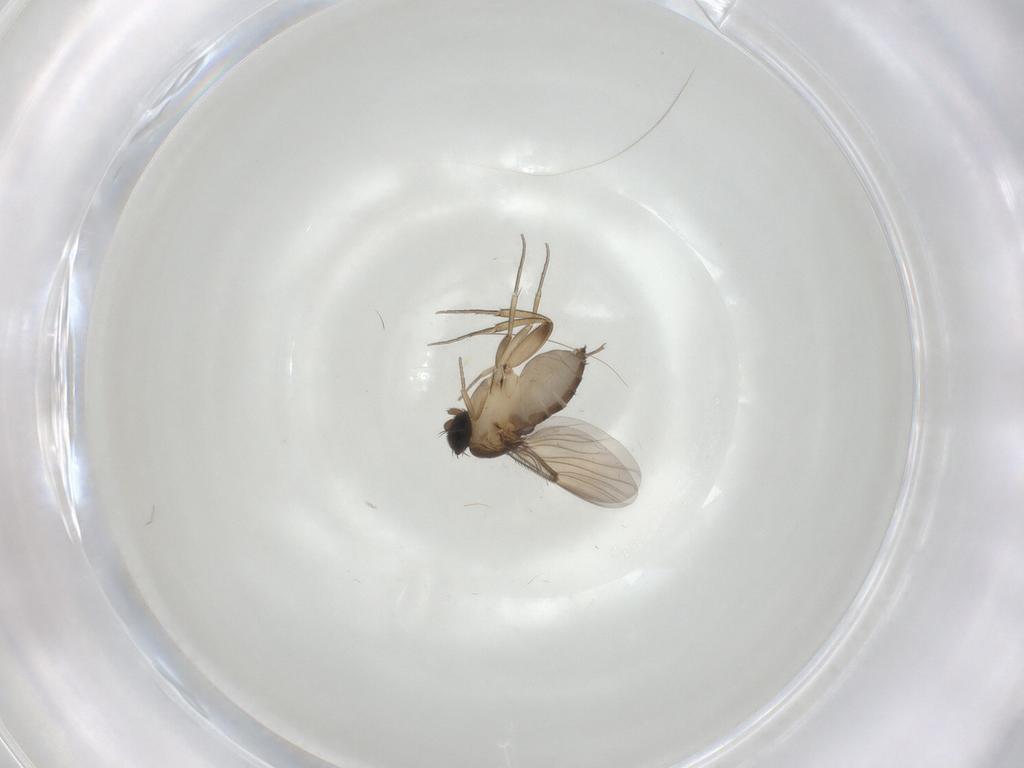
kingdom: Animalia
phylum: Arthropoda
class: Insecta
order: Diptera
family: Phoridae
